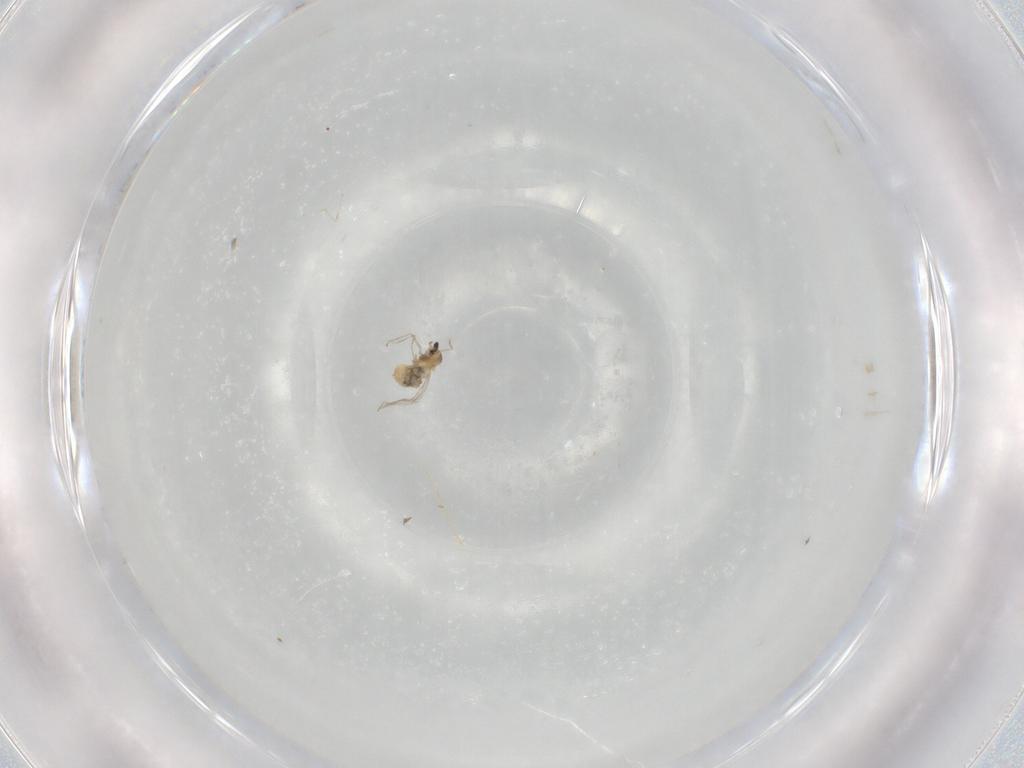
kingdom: Animalia
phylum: Arthropoda
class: Insecta
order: Diptera
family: Cecidomyiidae
